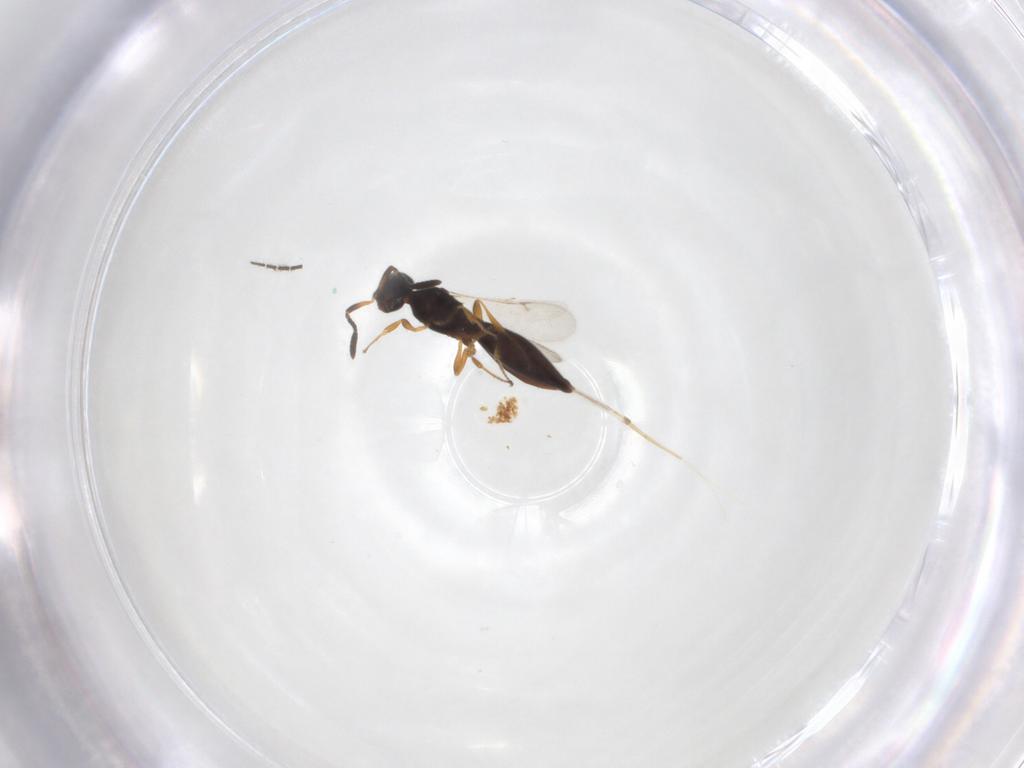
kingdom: Animalia
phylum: Arthropoda
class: Insecta
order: Hymenoptera
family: Scelionidae
